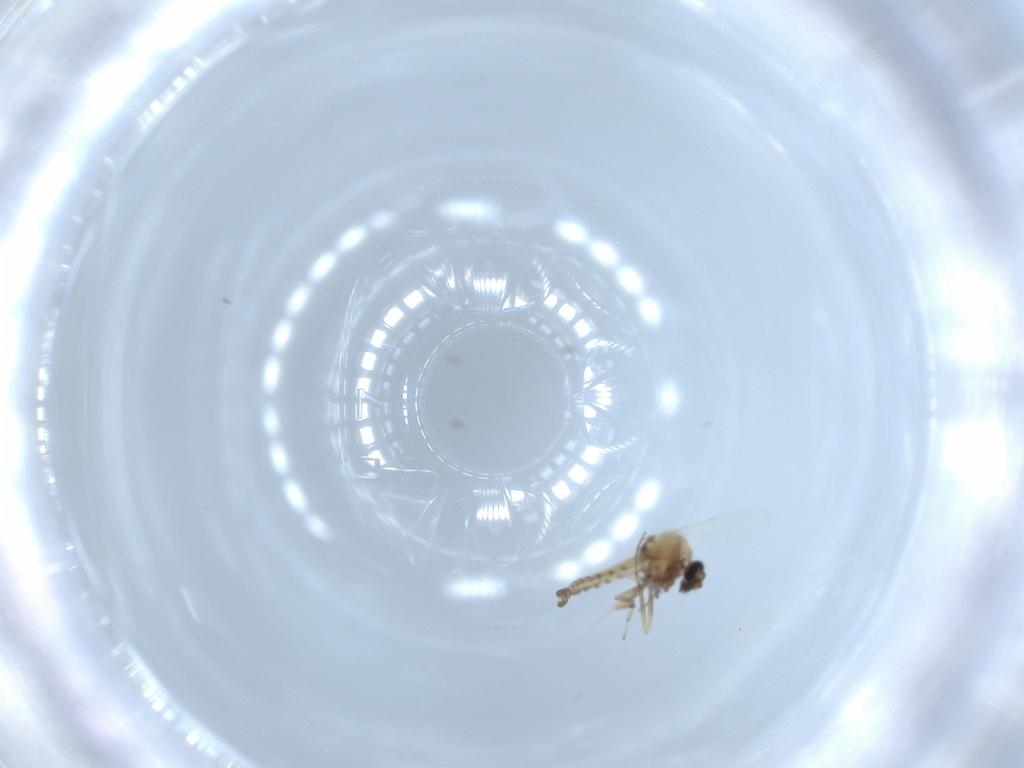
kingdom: Animalia
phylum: Arthropoda
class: Insecta
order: Diptera
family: Ceratopogonidae
